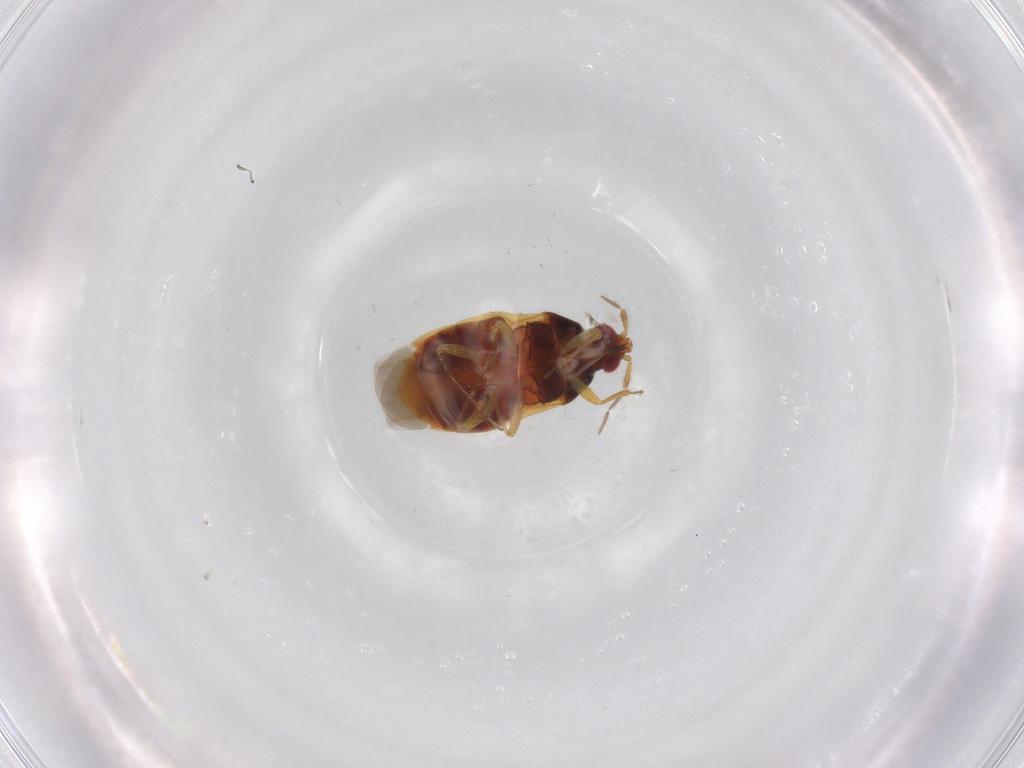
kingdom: Animalia
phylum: Arthropoda
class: Insecta
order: Hemiptera
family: Anthocoridae
